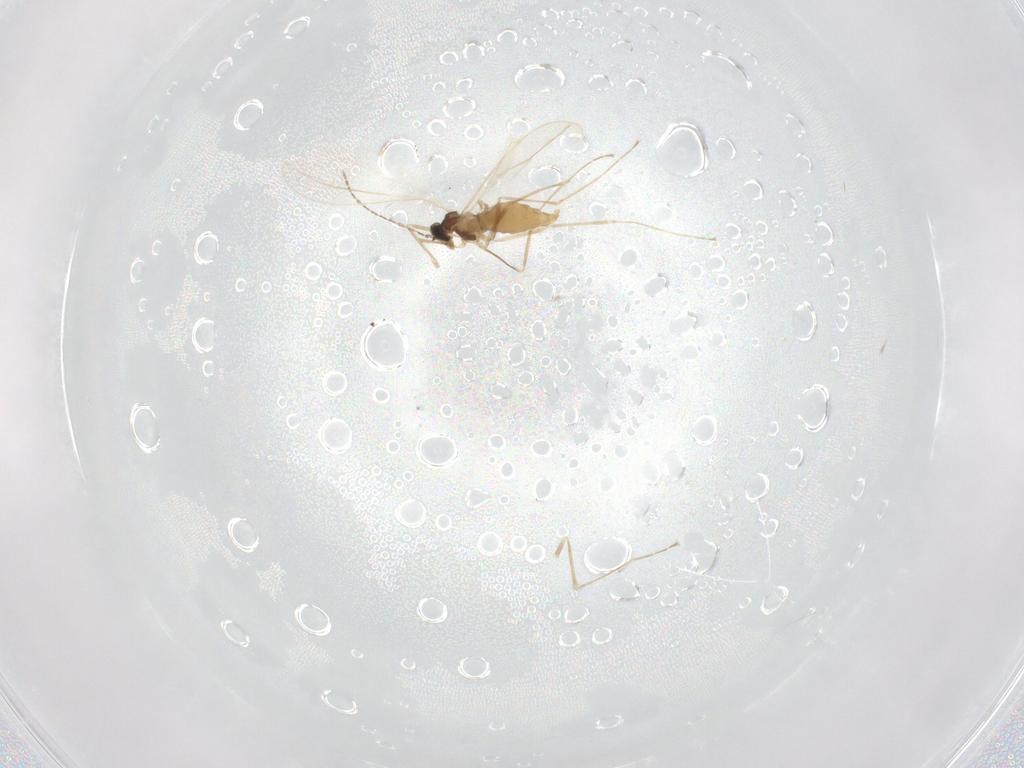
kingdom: Animalia
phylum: Arthropoda
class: Insecta
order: Diptera
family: Cecidomyiidae
